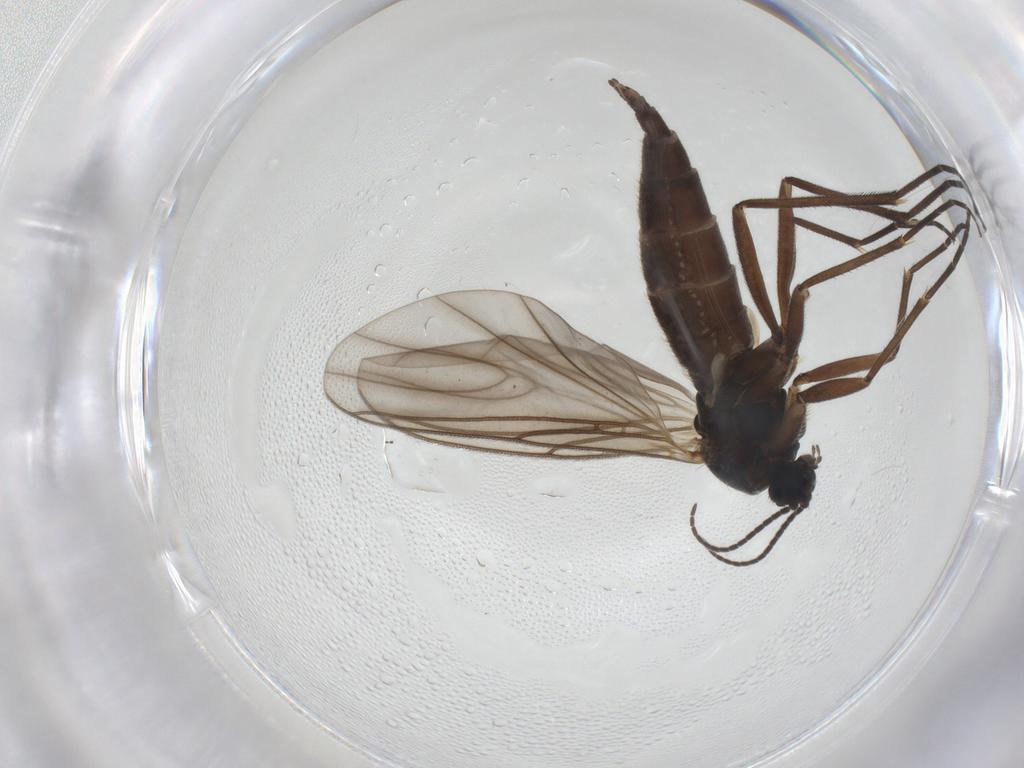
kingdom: Animalia
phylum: Arthropoda
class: Insecta
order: Diptera
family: Sciaridae
